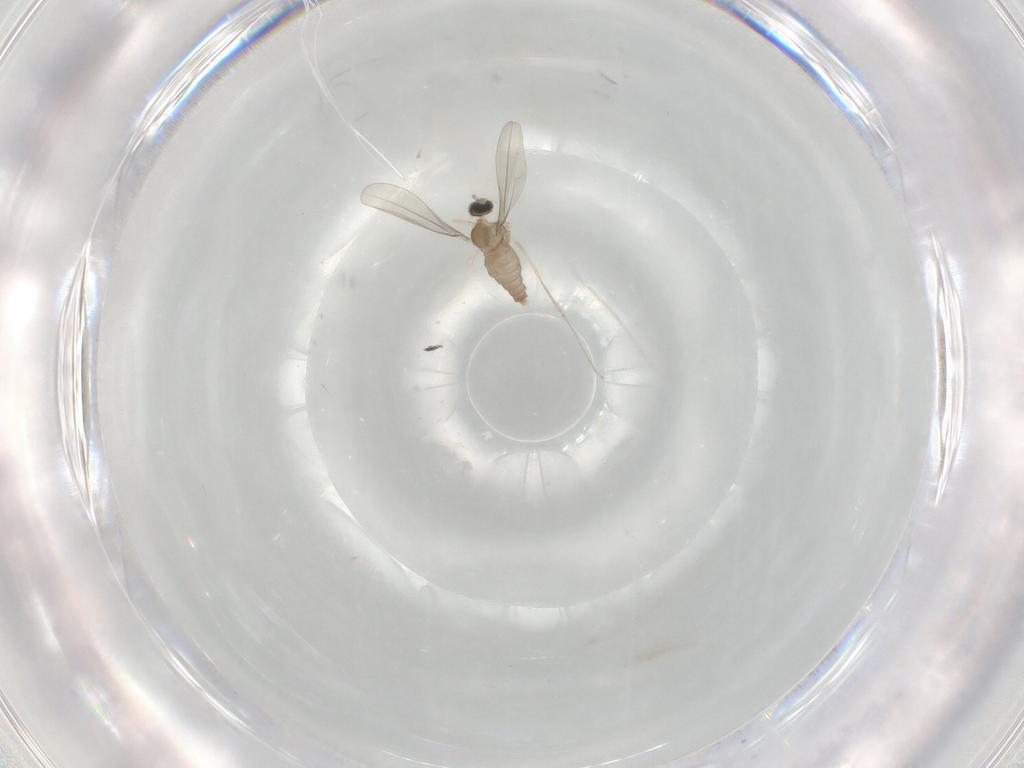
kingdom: Animalia
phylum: Arthropoda
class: Insecta
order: Diptera
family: Cecidomyiidae
